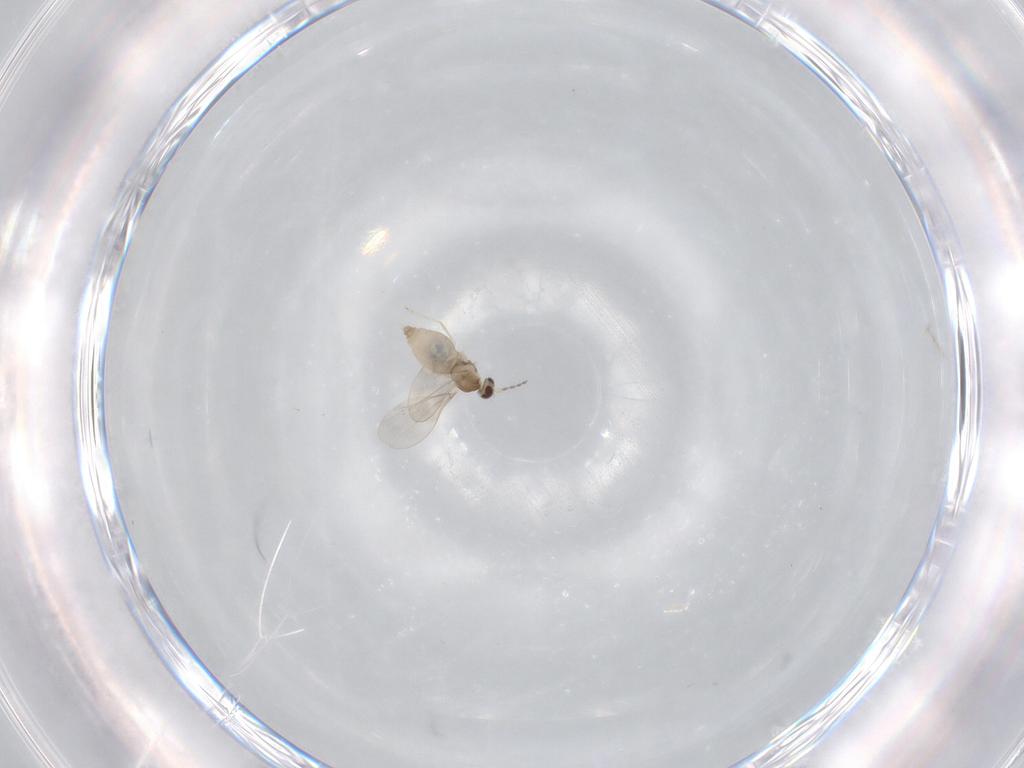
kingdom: Animalia
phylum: Arthropoda
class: Insecta
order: Diptera
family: Cecidomyiidae
